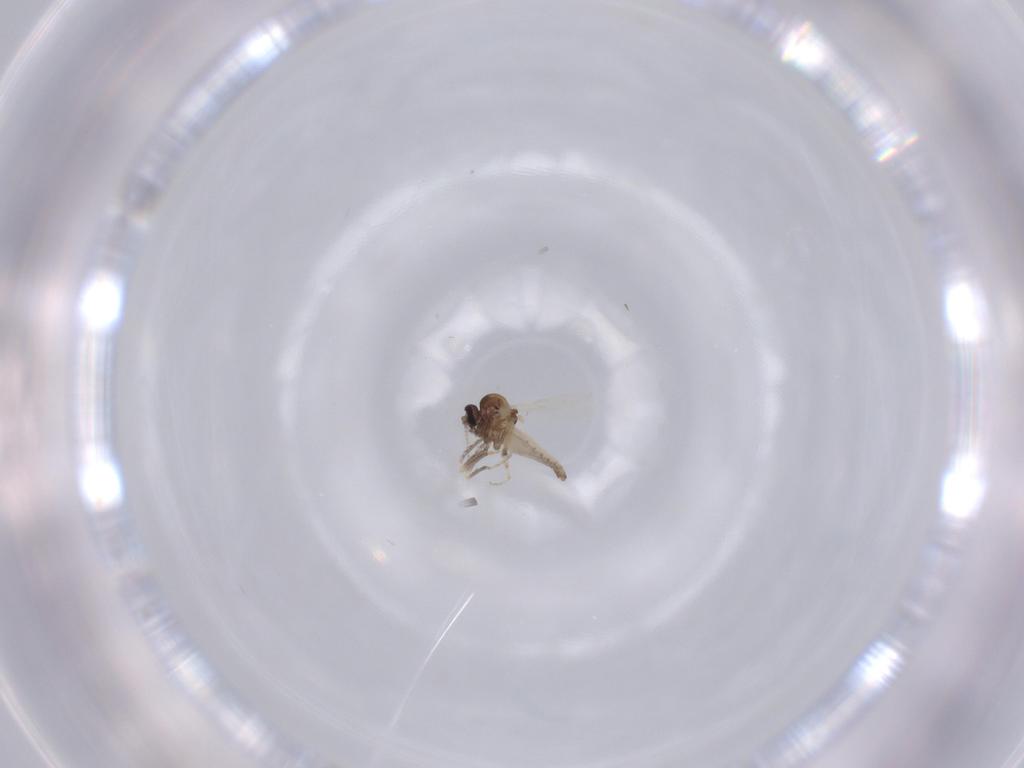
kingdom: Animalia
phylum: Arthropoda
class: Insecta
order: Diptera
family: Ceratopogonidae
